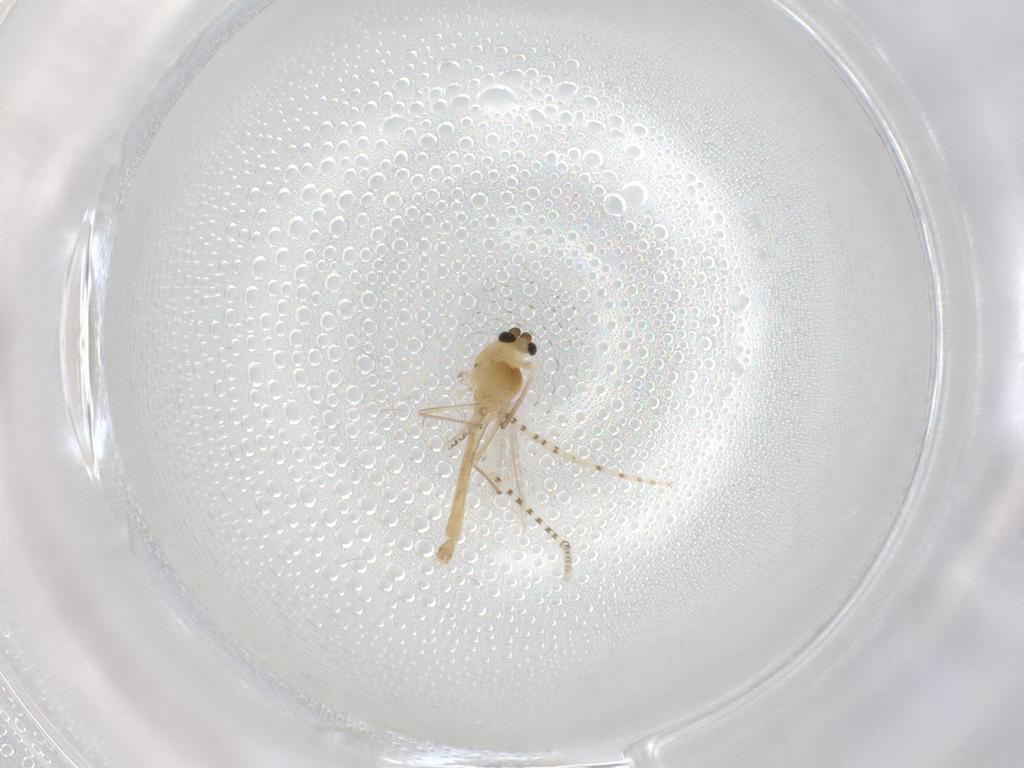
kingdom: Animalia
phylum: Arthropoda
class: Insecta
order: Diptera
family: Chaoboridae
